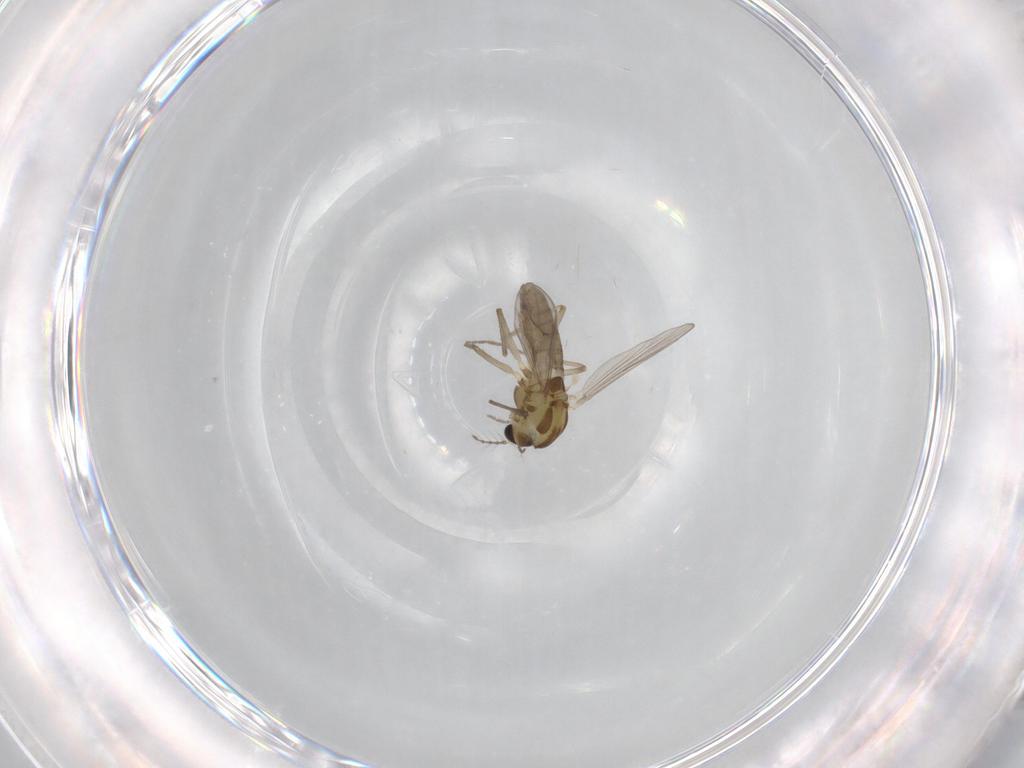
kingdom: Animalia
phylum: Arthropoda
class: Insecta
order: Diptera
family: Chironomidae
